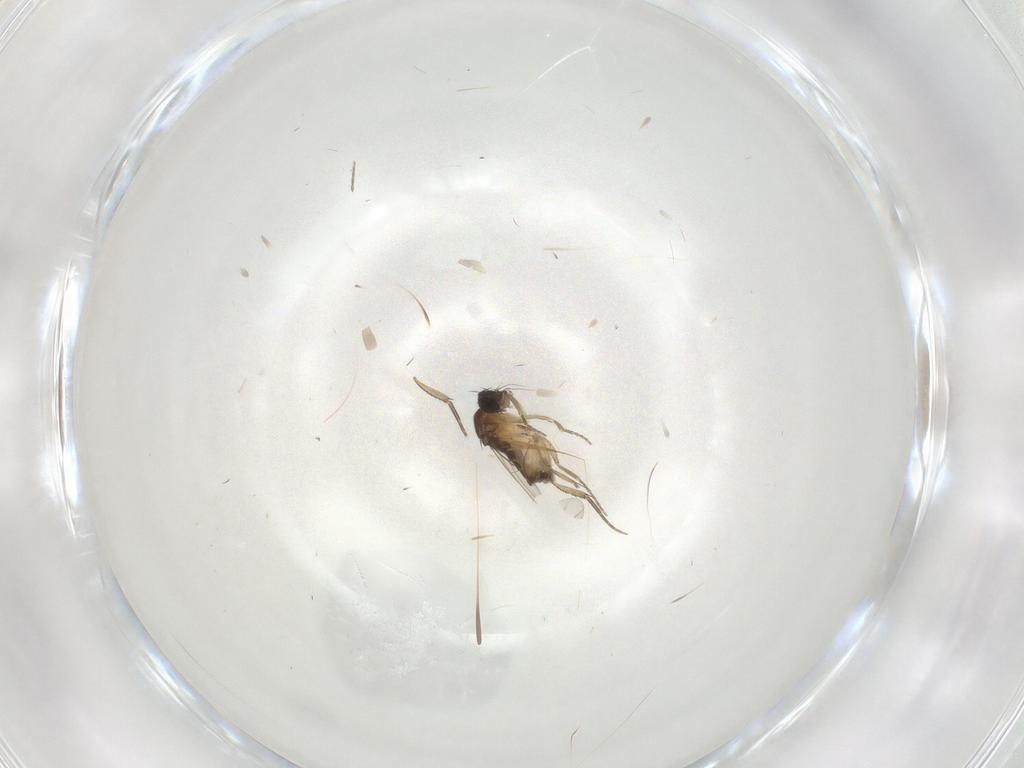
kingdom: Animalia
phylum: Arthropoda
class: Insecta
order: Diptera
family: Phoridae
